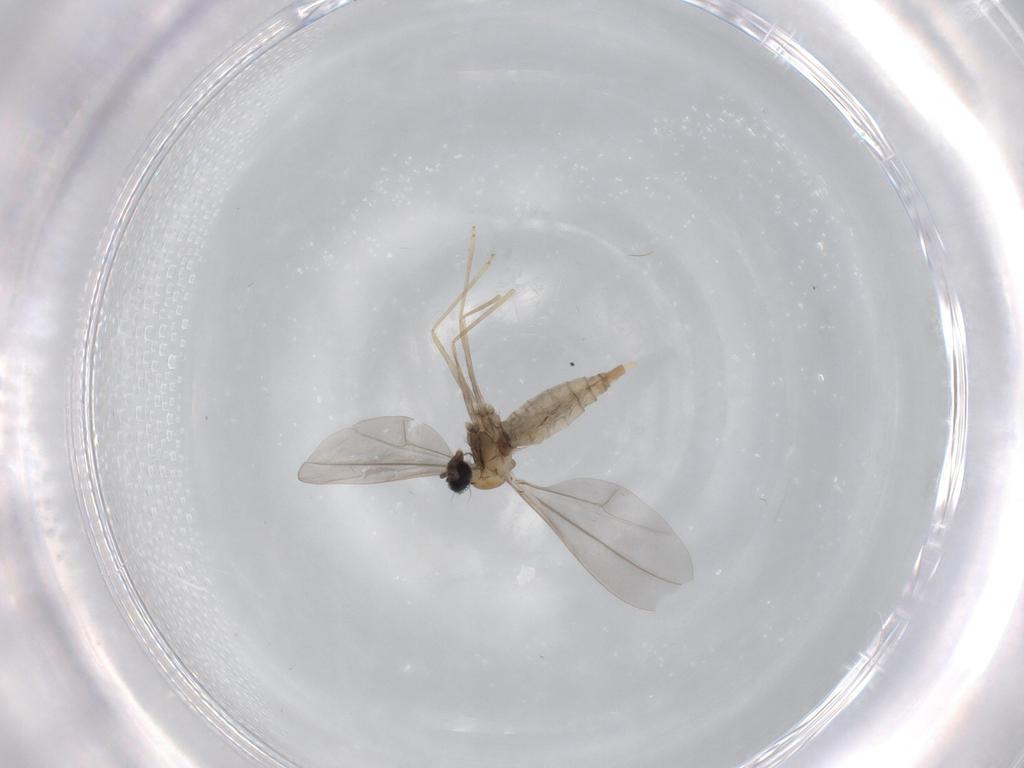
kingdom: Animalia
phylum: Arthropoda
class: Insecta
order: Diptera
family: Cecidomyiidae
